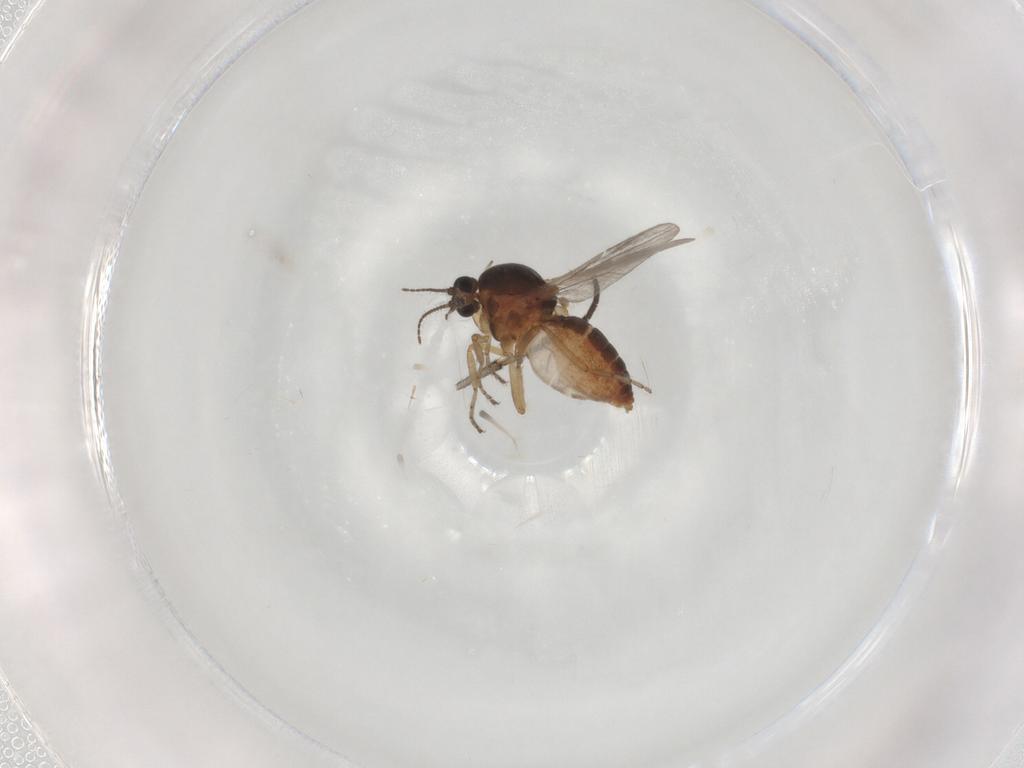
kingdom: Animalia
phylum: Arthropoda
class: Insecta
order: Diptera
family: Ceratopogonidae
